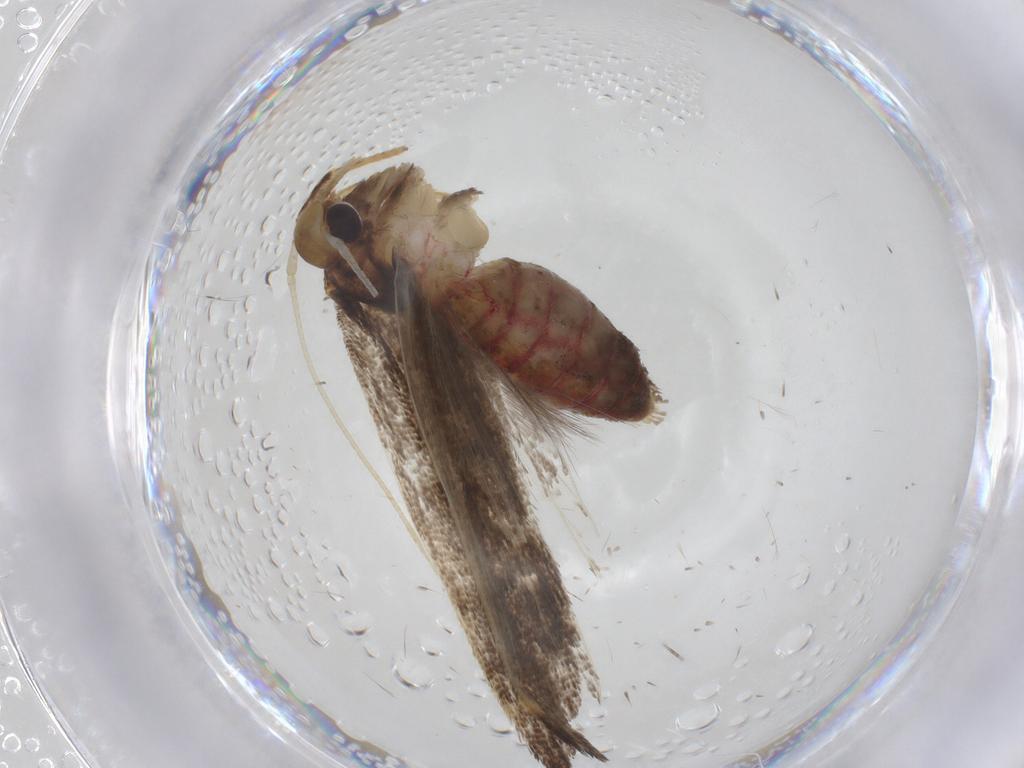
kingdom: Animalia
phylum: Arthropoda
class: Insecta
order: Lepidoptera
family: Lecithoceridae
